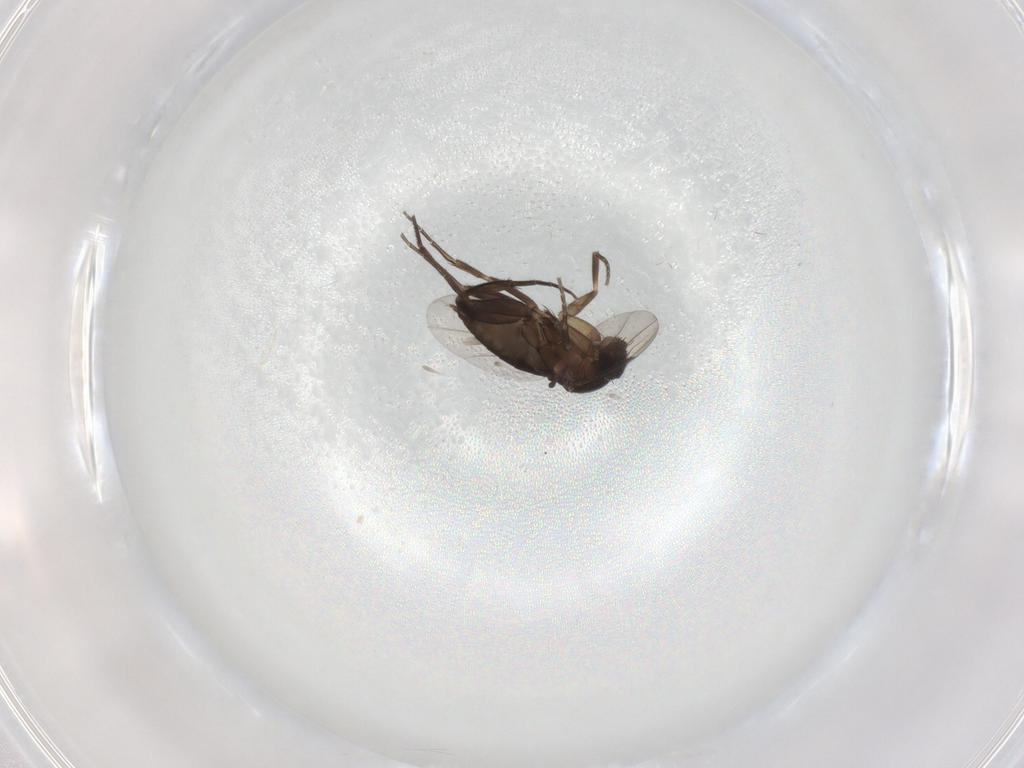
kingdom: Animalia
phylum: Arthropoda
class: Insecta
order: Diptera
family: Phoridae
